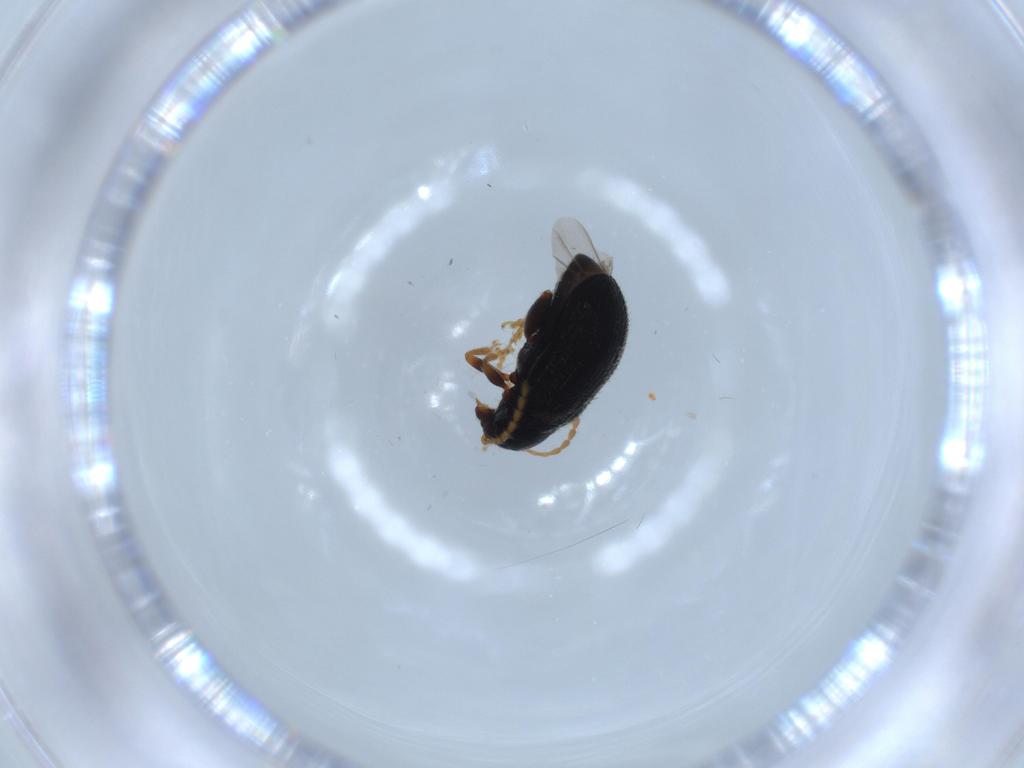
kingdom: Animalia
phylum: Arthropoda
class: Insecta
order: Coleoptera
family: Chrysomelidae
